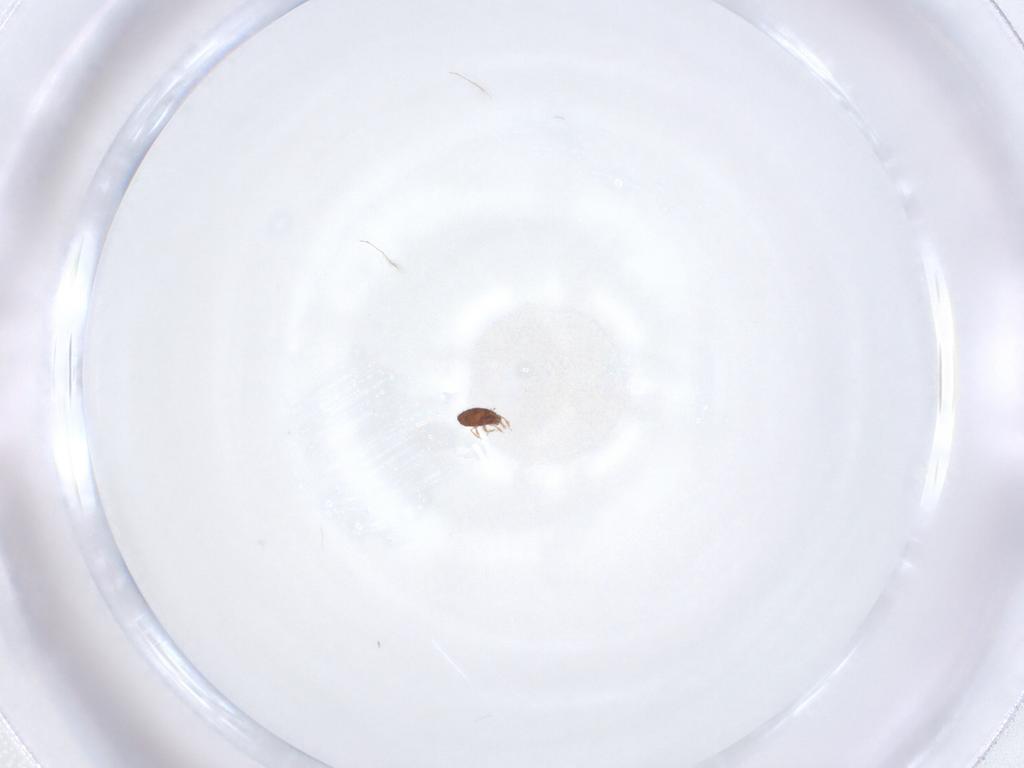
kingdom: Animalia
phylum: Arthropoda
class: Arachnida
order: Sarcoptiformes
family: Dendroeremaeidae
